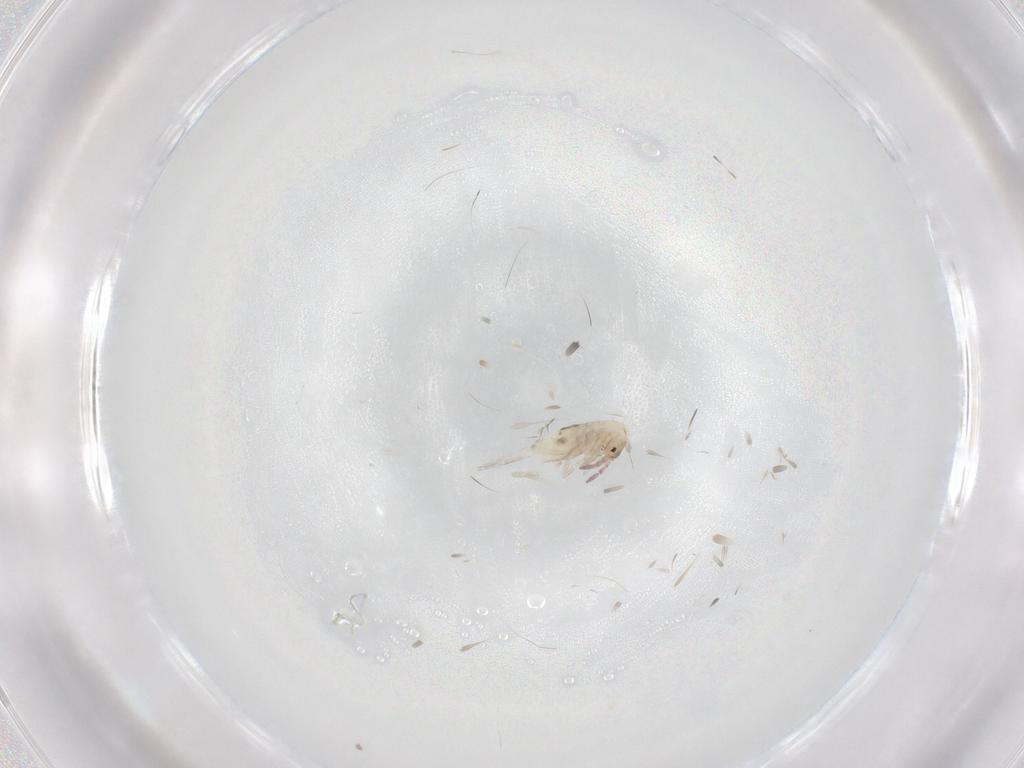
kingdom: Animalia
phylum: Arthropoda
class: Collembola
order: Entomobryomorpha
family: Entomobryidae
